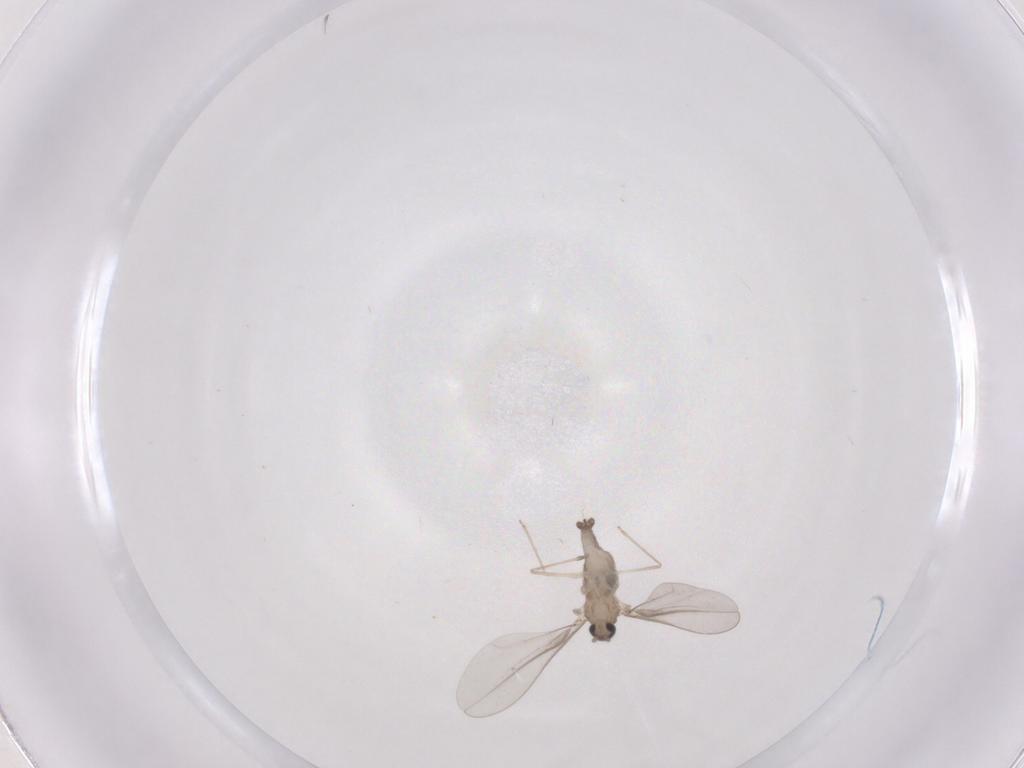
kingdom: Animalia
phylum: Arthropoda
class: Insecta
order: Diptera
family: Cecidomyiidae
